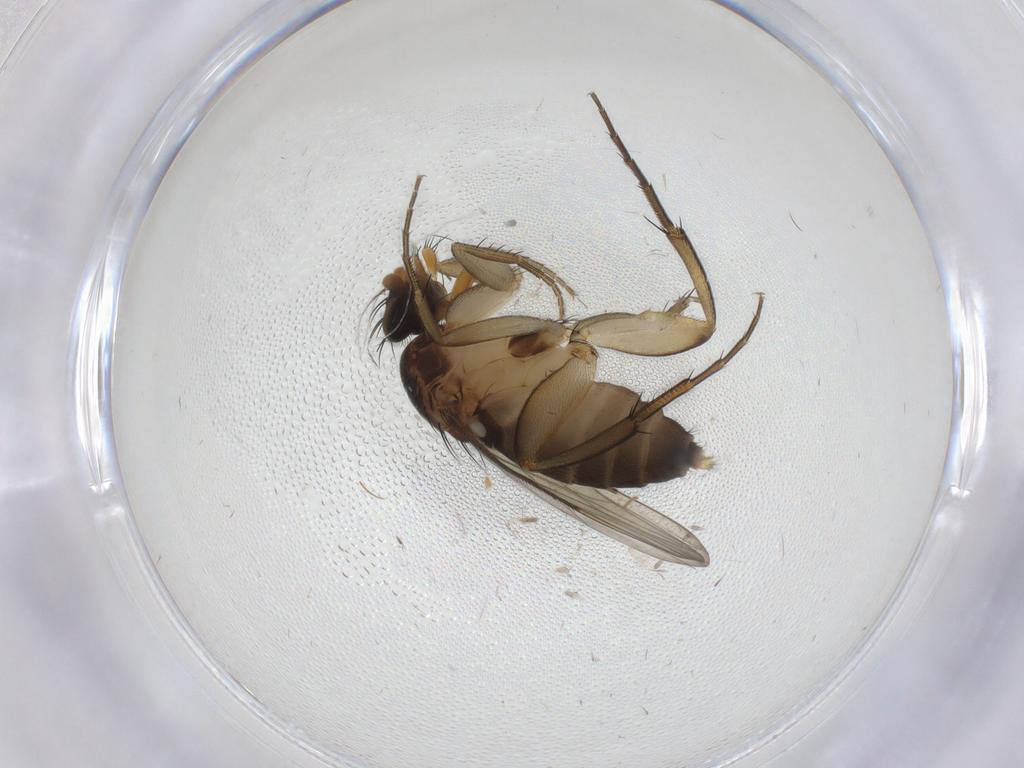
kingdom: Animalia
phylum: Arthropoda
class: Insecta
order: Diptera
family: Phoridae
